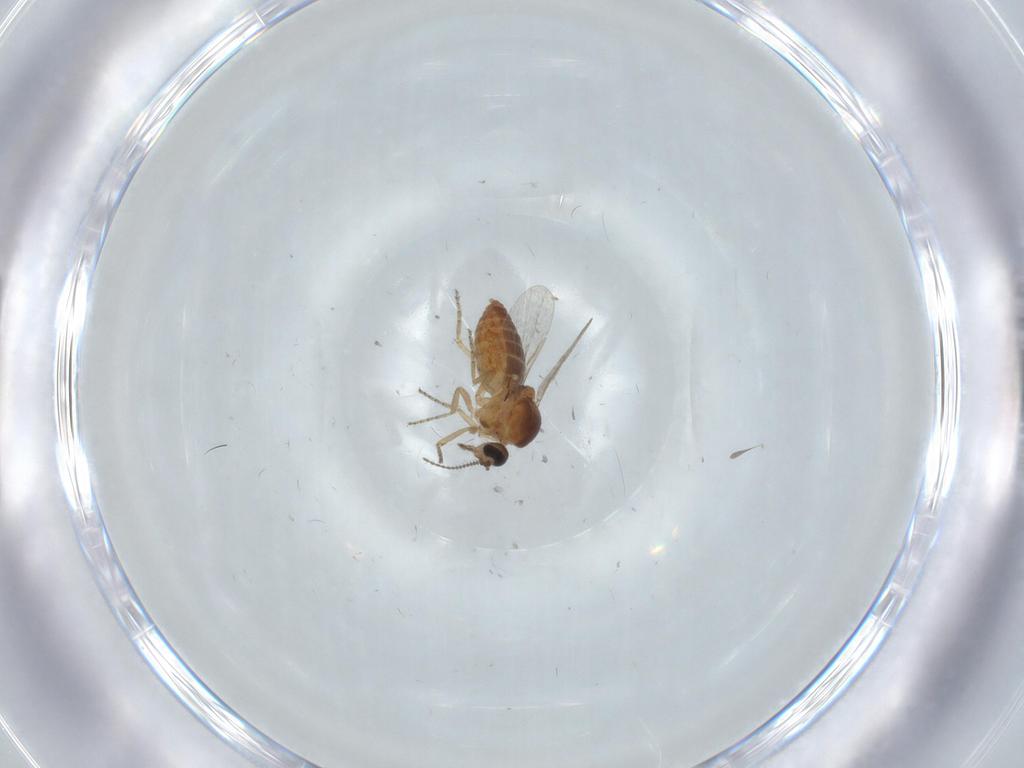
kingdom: Animalia
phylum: Arthropoda
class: Insecta
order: Diptera
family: Ceratopogonidae
